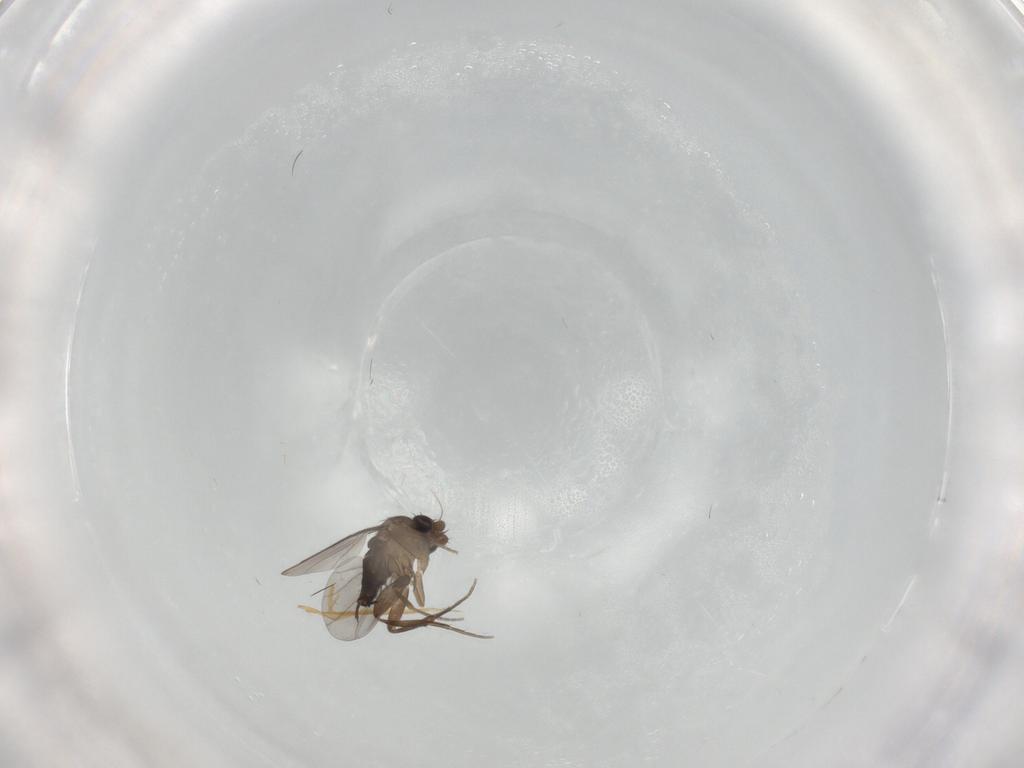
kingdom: Animalia
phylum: Arthropoda
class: Insecta
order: Diptera
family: Phoridae
